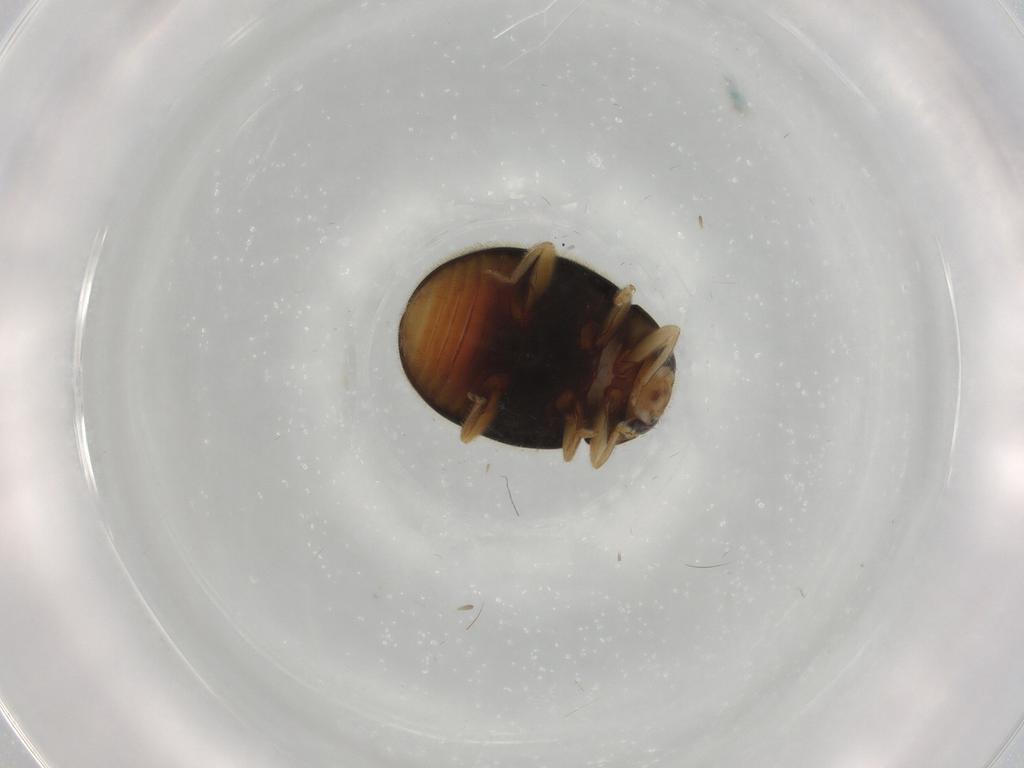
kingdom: Animalia
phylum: Arthropoda
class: Insecta
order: Coleoptera
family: Coccinellidae
